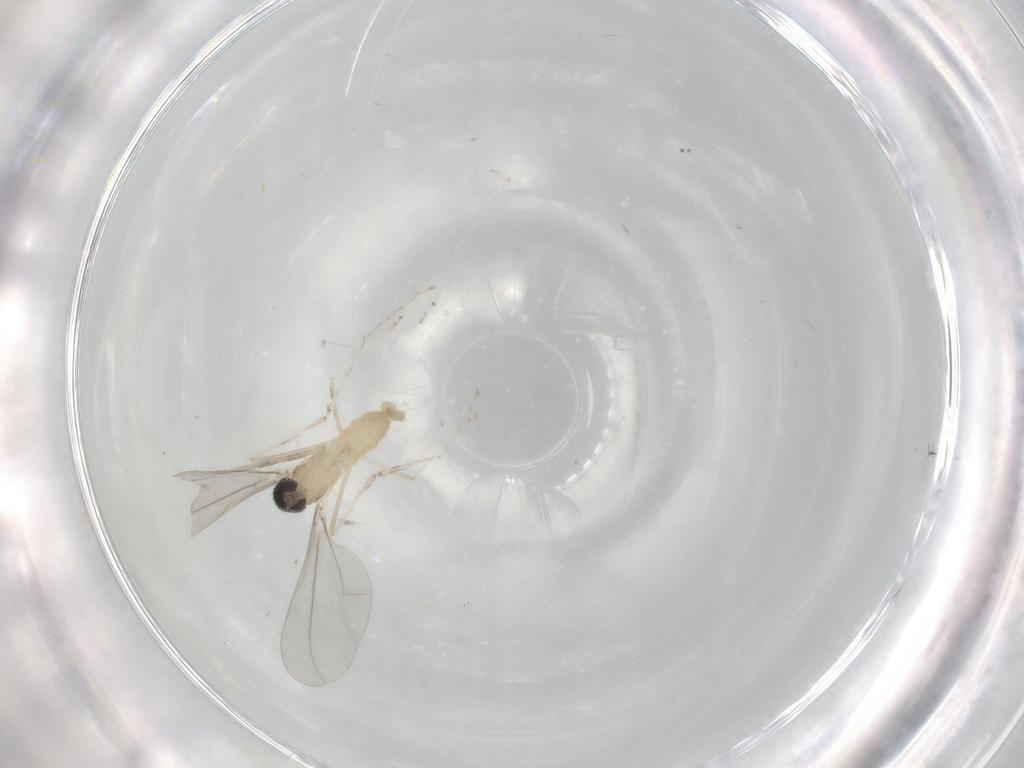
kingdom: Animalia
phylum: Arthropoda
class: Insecta
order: Diptera
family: Cecidomyiidae
